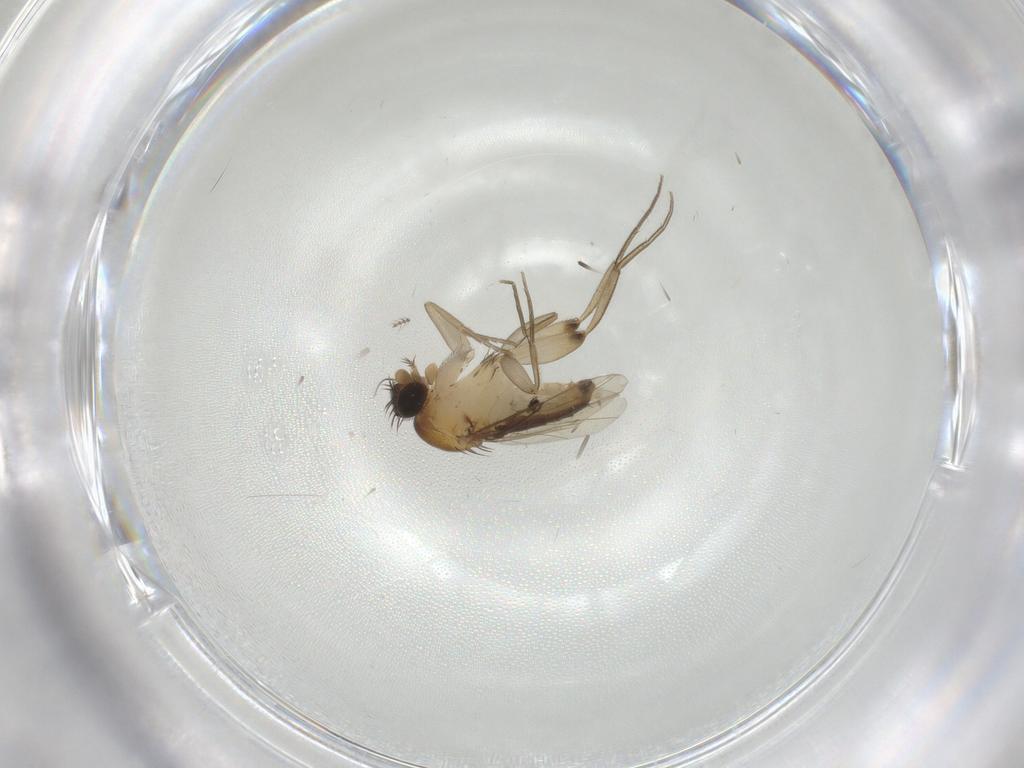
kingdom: Animalia
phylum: Arthropoda
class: Insecta
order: Diptera
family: Phoridae
